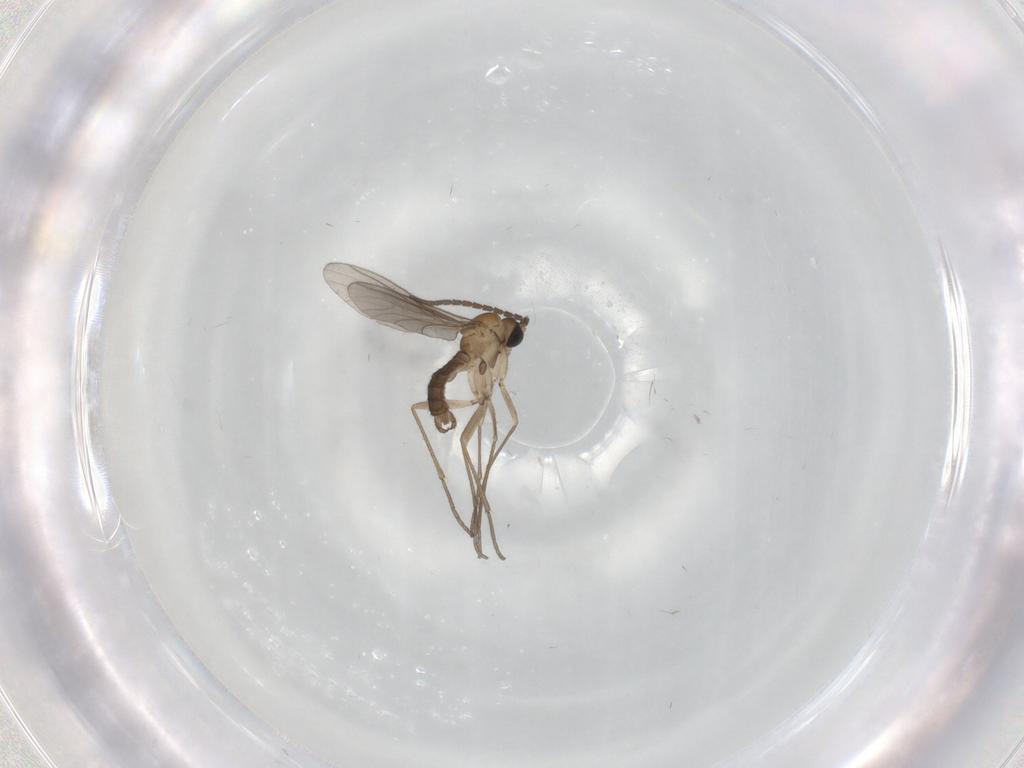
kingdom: Animalia
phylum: Arthropoda
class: Insecta
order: Diptera
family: Sciaridae
